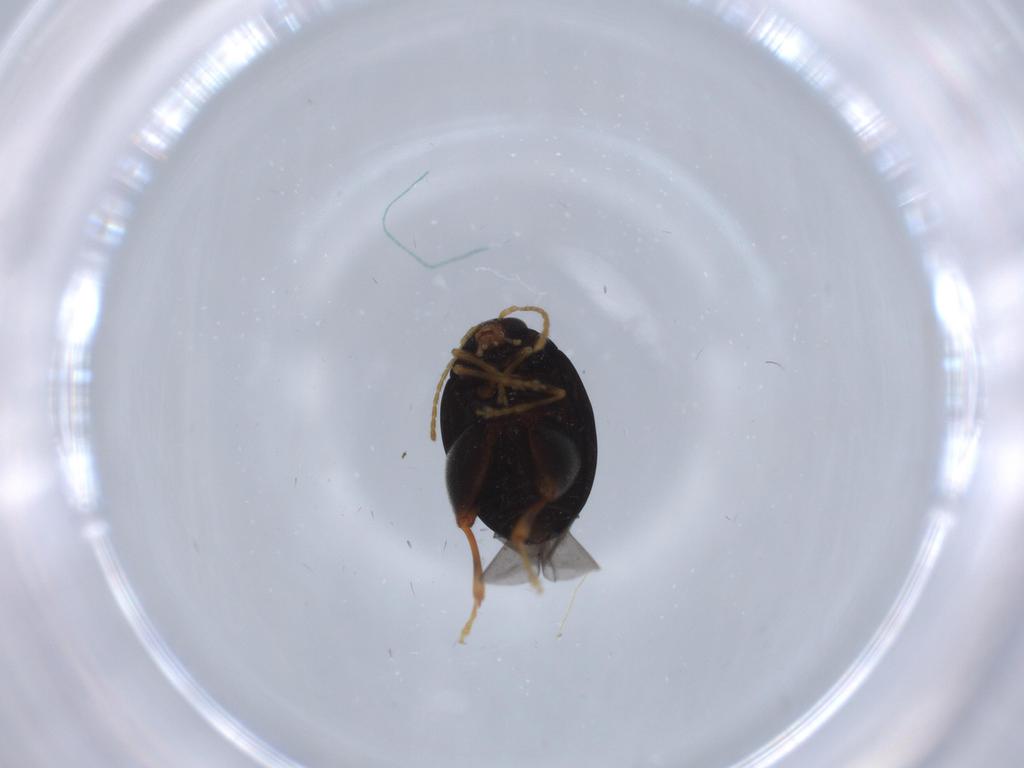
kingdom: Animalia
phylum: Arthropoda
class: Insecta
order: Coleoptera
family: Chrysomelidae
